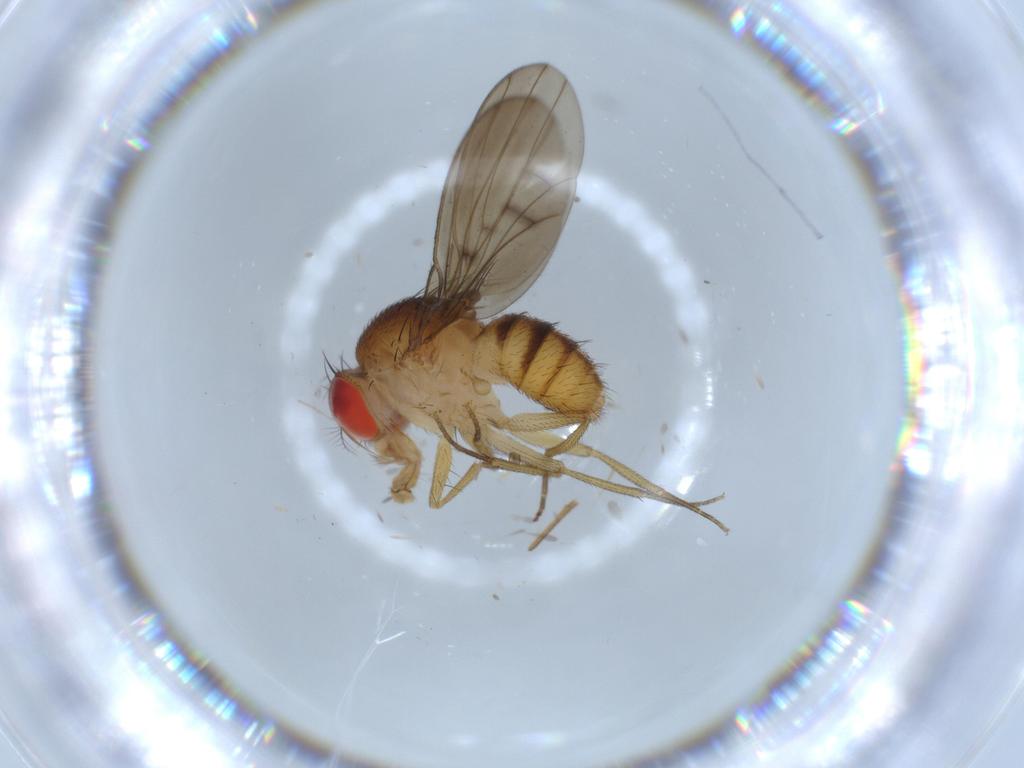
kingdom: Animalia
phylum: Arthropoda
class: Insecta
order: Diptera
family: Drosophilidae
